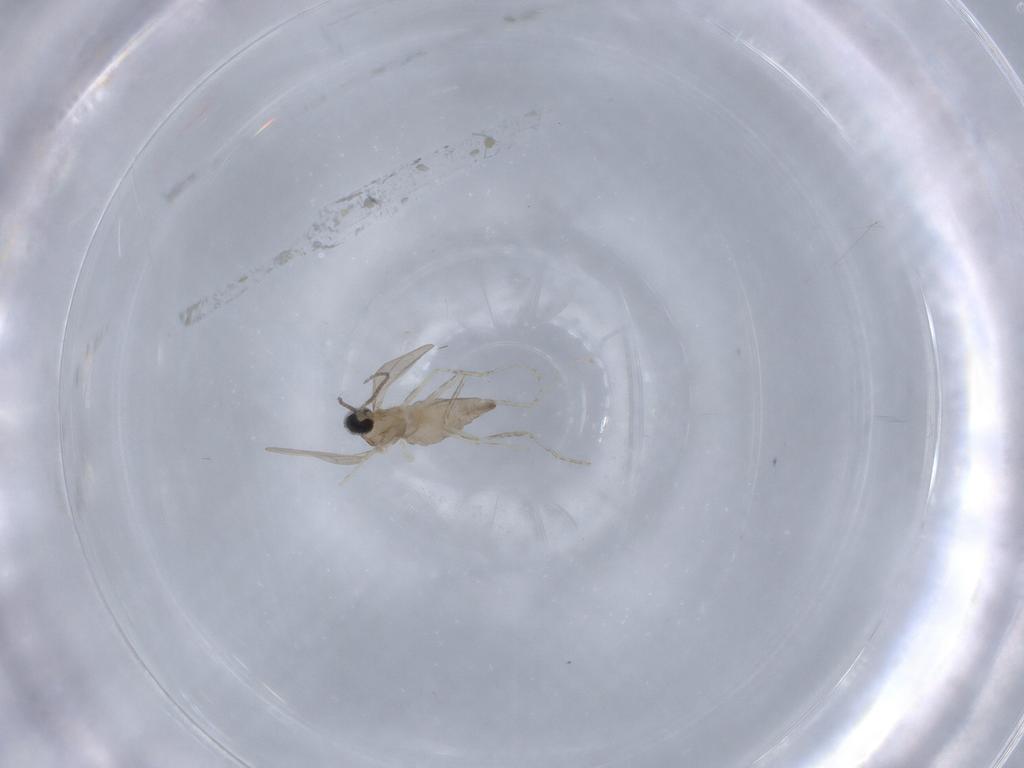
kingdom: Animalia
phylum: Arthropoda
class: Insecta
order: Diptera
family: Cecidomyiidae
